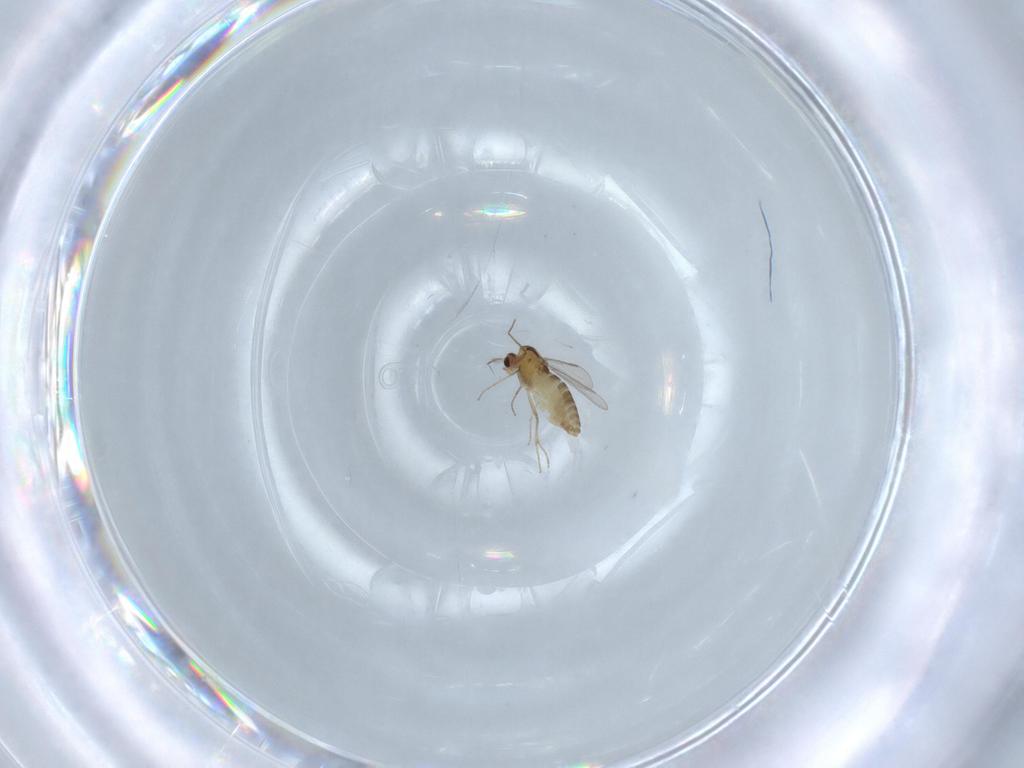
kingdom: Animalia
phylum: Arthropoda
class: Insecta
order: Diptera
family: Chironomidae
